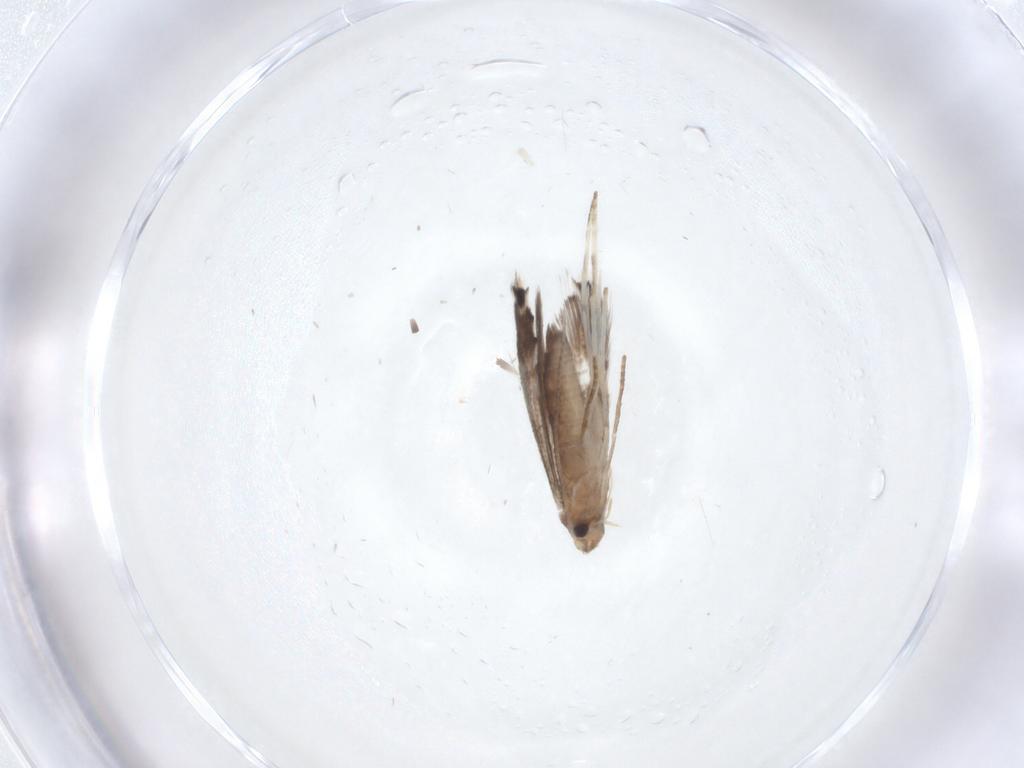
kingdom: Animalia
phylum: Arthropoda
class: Insecta
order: Lepidoptera
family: Gracillariidae
